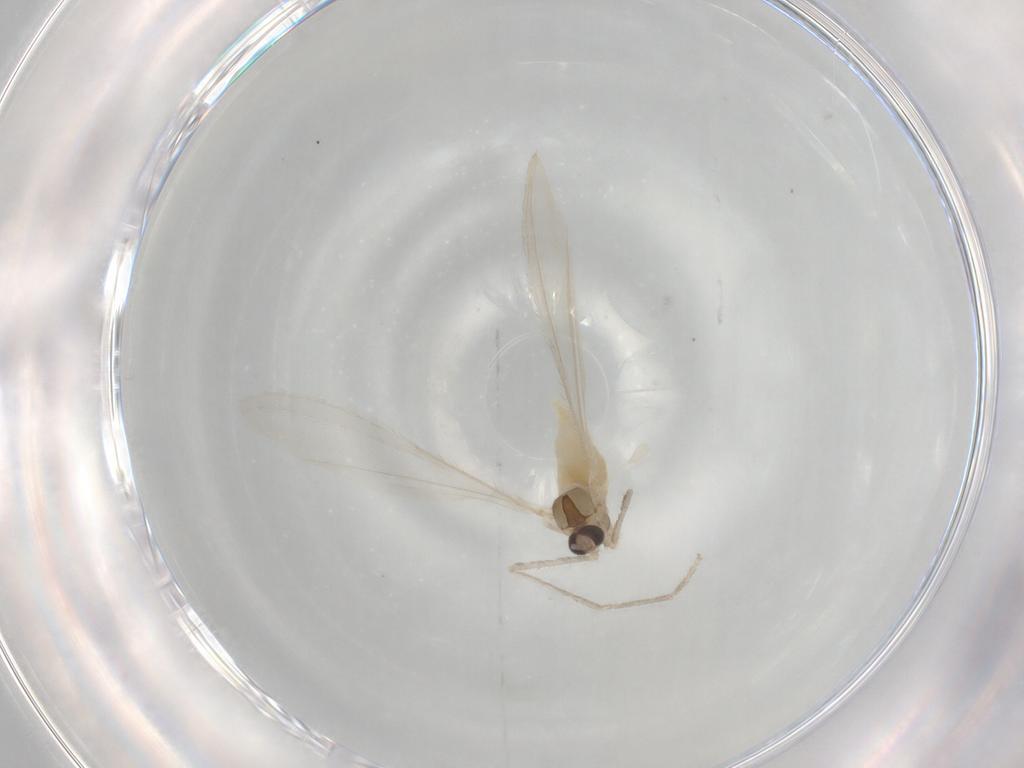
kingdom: Animalia
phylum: Arthropoda
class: Insecta
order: Diptera
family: Cecidomyiidae
